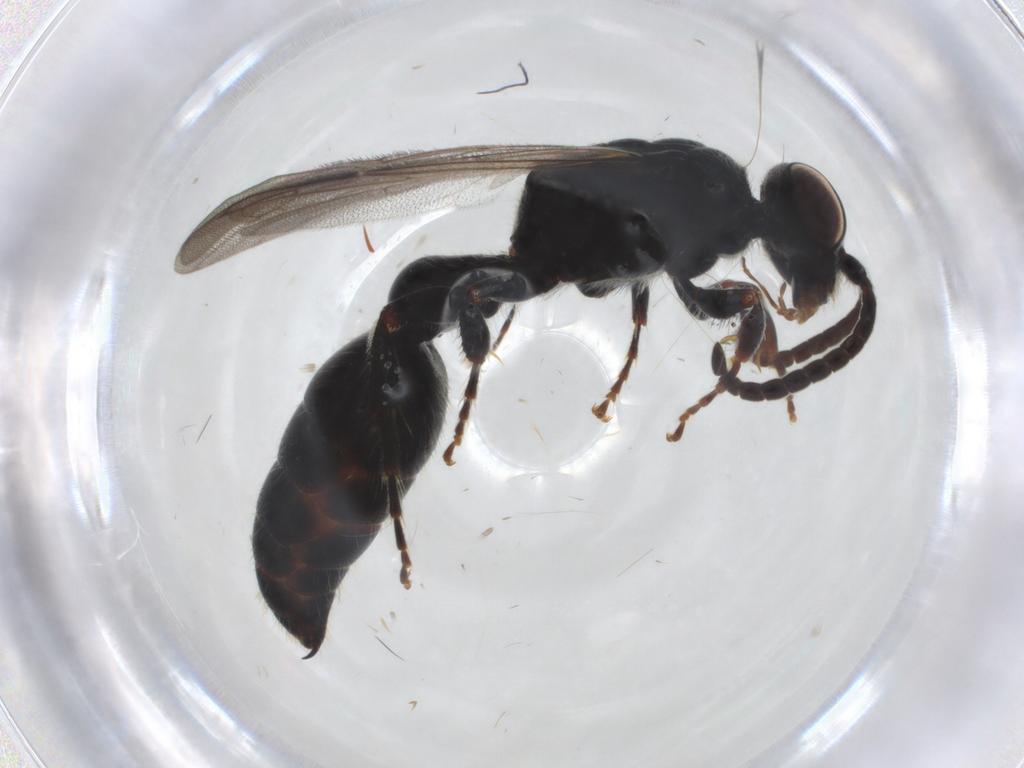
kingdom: Animalia
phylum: Arthropoda
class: Insecta
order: Hymenoptera
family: Tiphiidae
